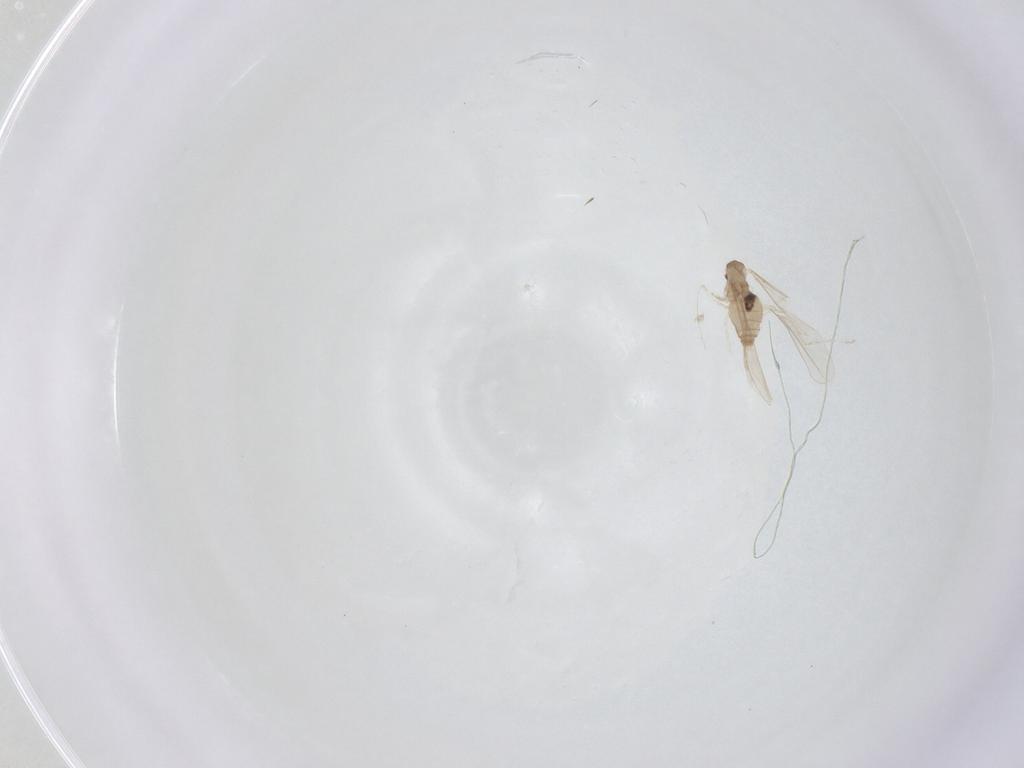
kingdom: Animalia
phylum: Arthropoda
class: Insecta
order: Diptera
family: Cecidomyiidae
